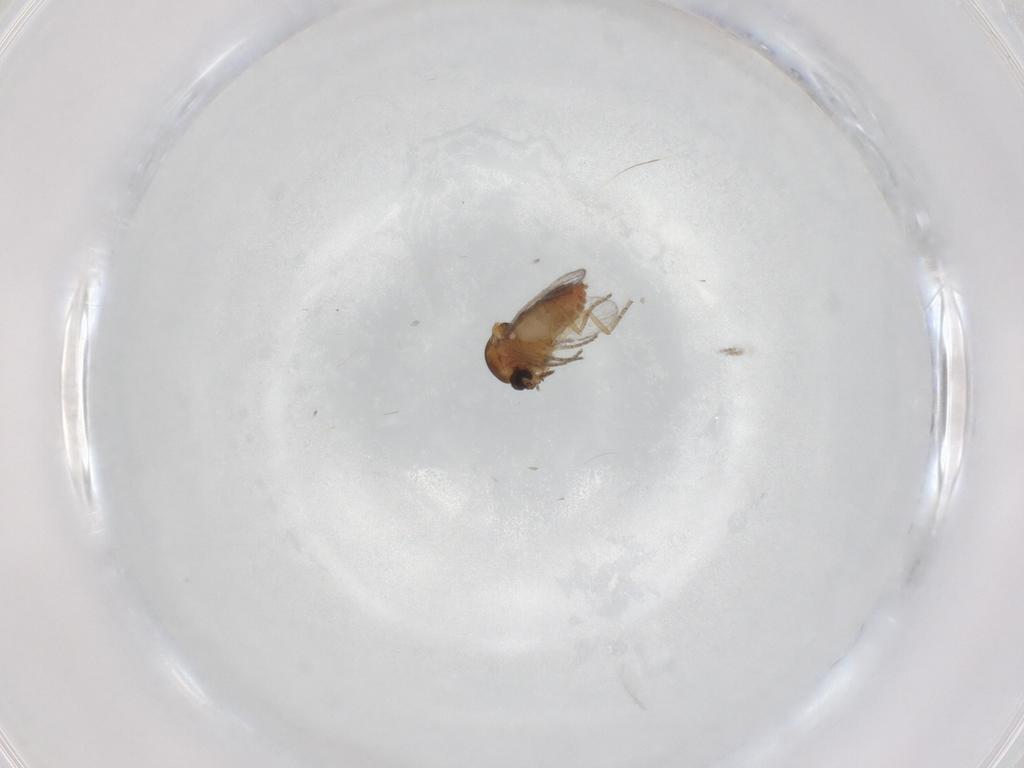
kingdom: Animalia
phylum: Arthropoda
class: Insecta
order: Diptera
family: Ceratopogonidae
